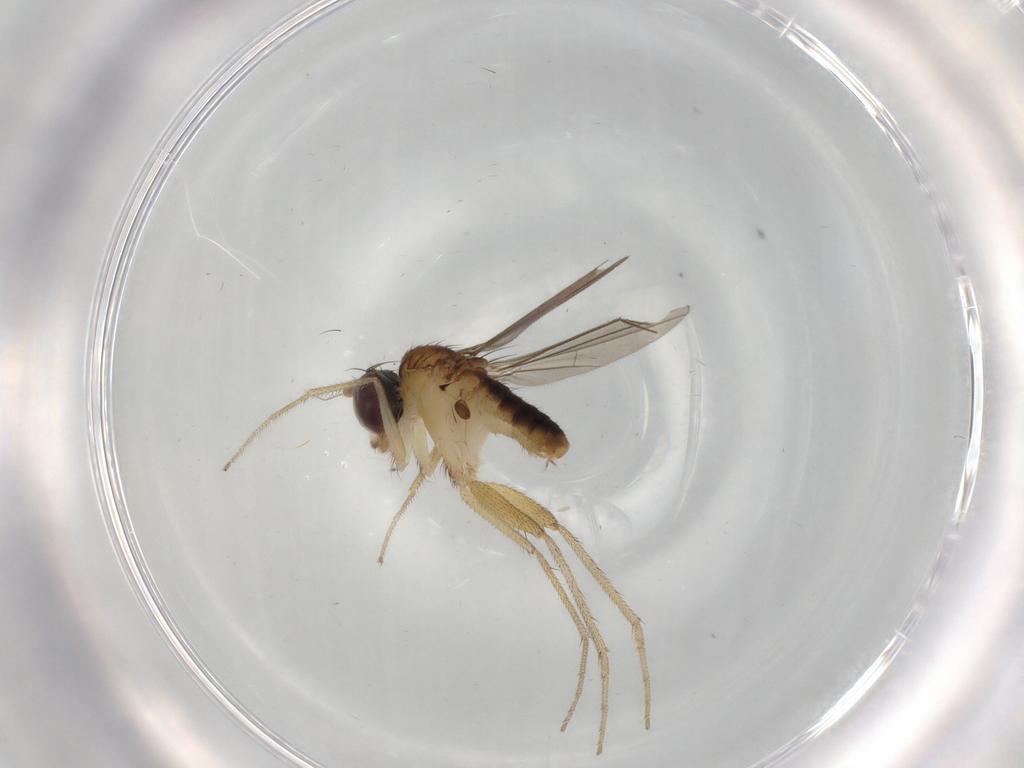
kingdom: Animalia
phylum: Arthropoda
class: Insecta
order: Diptera
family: Dolichopodidae
